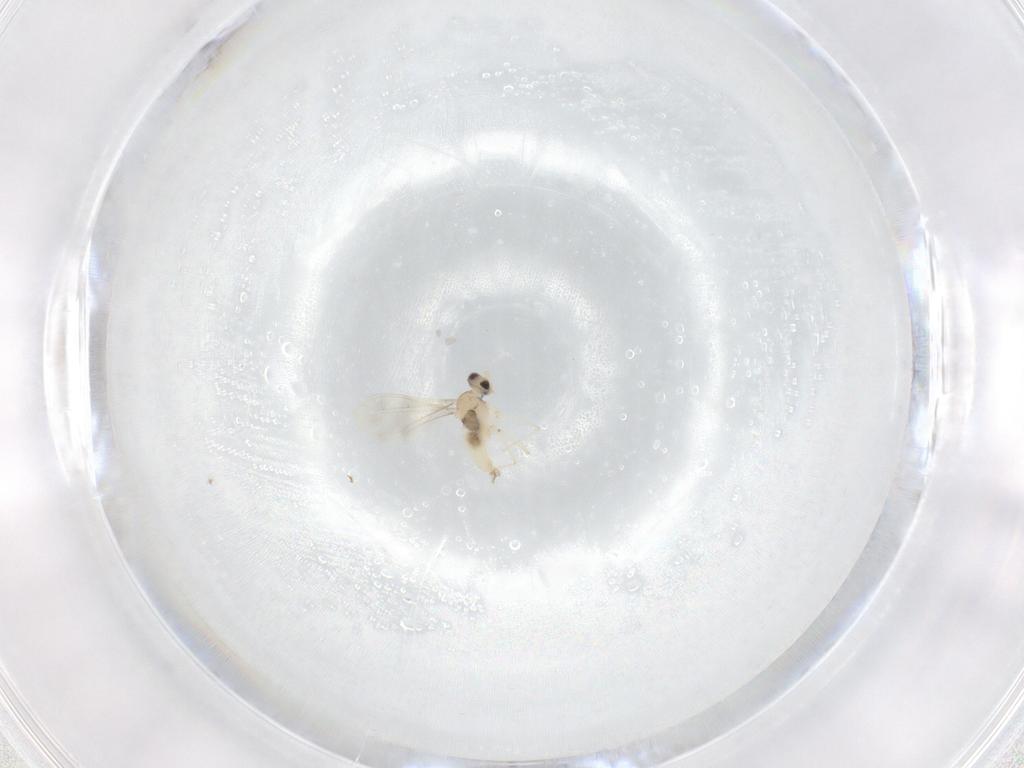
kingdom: Animalia
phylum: Arthropoda
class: Insecta
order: Diptera
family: Cecidomyiidae
